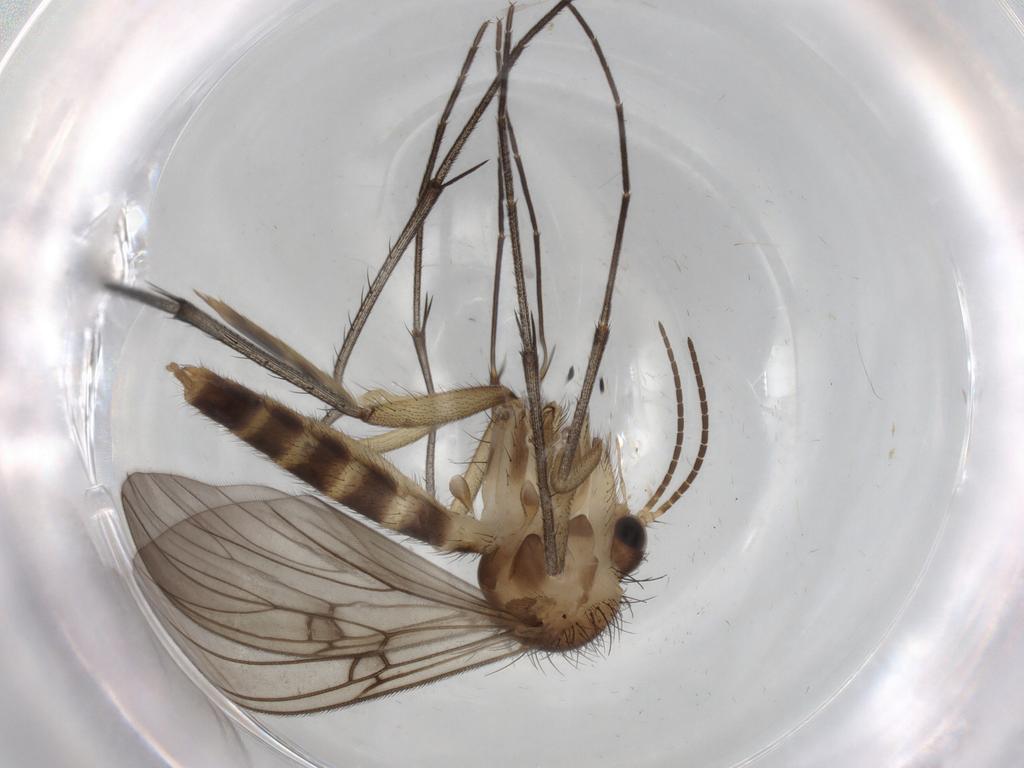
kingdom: Animalia
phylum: Arthropoda
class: Insecta
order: Diptera
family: Mycetophilidae
